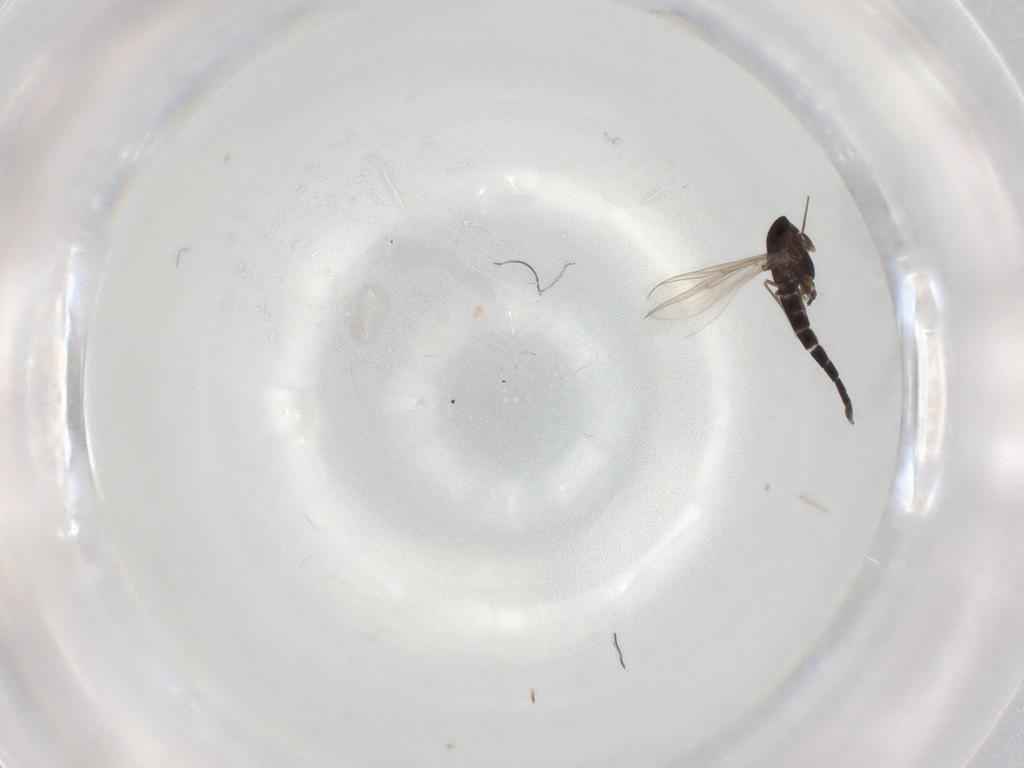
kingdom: Animalia
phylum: Arthropoda
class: Insecta
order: Diptera
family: Chironomidae
